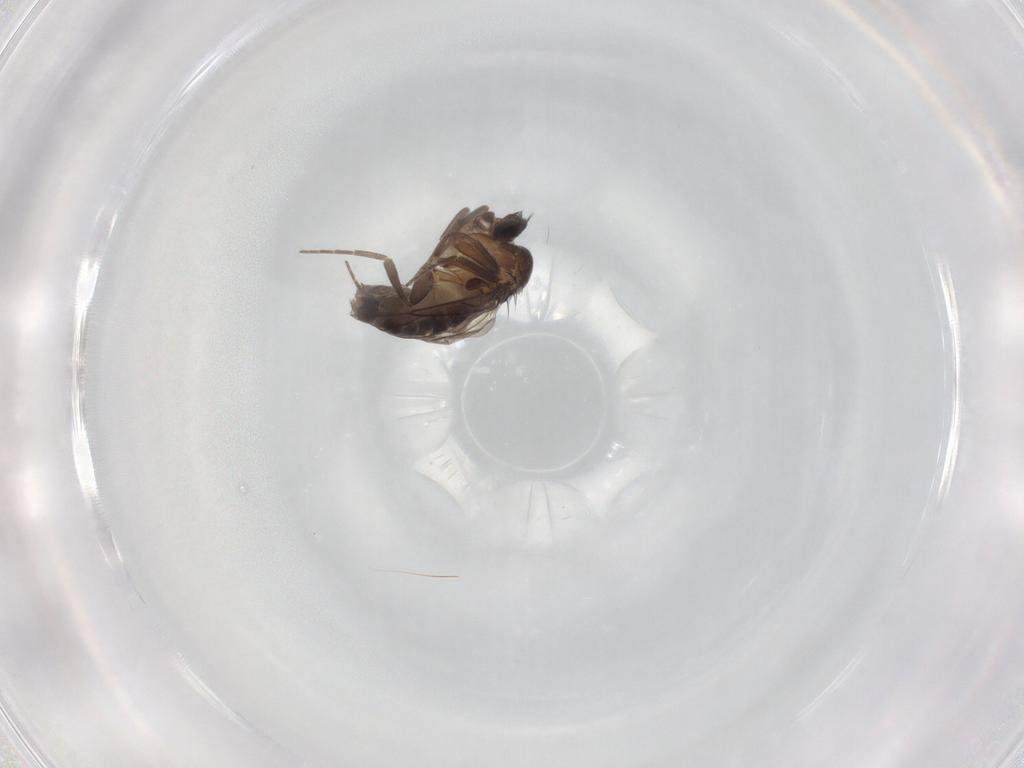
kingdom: Animalia
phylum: Arthropoda
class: Insecta
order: Diptera
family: Phoridae
